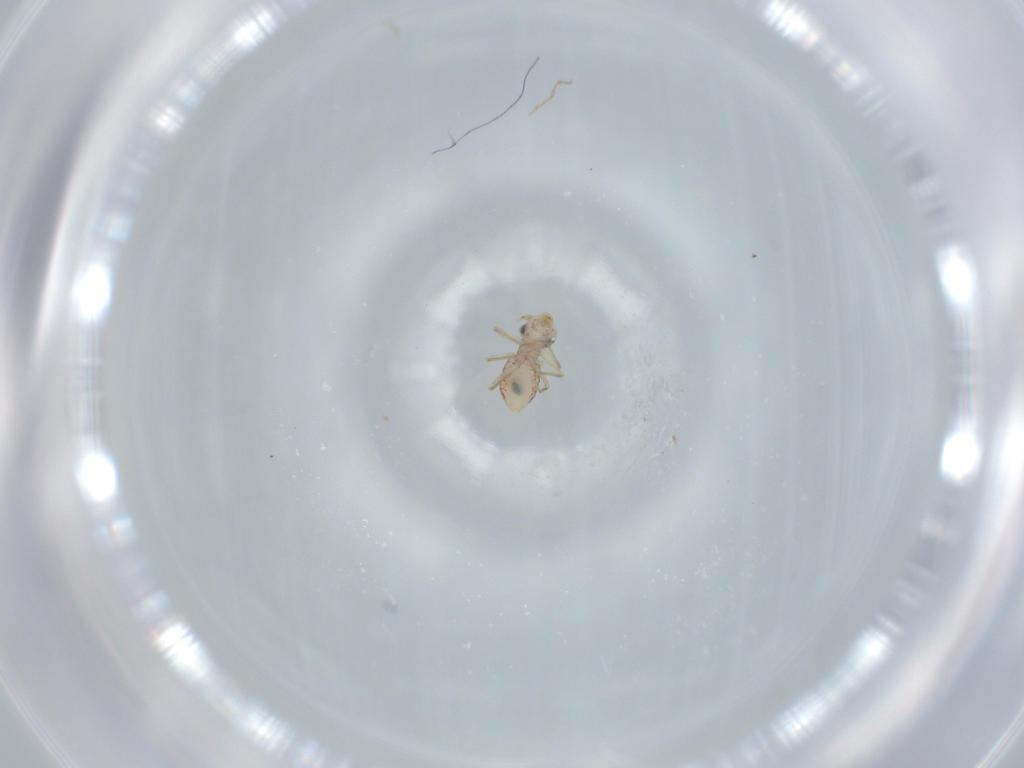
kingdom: Animalia
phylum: Arthropoda
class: Insecta
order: Psocodea
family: Lepidopsocidae
